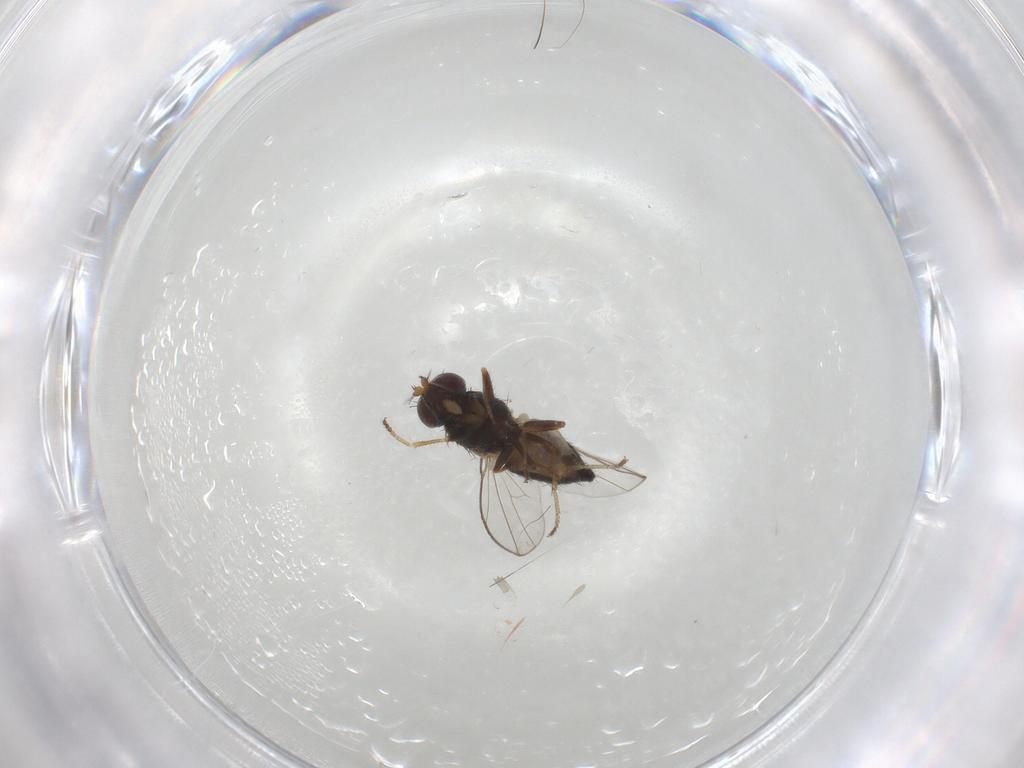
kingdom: Animalia
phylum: Arthropoda
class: Insecta
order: Diptera
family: Ephydridae
